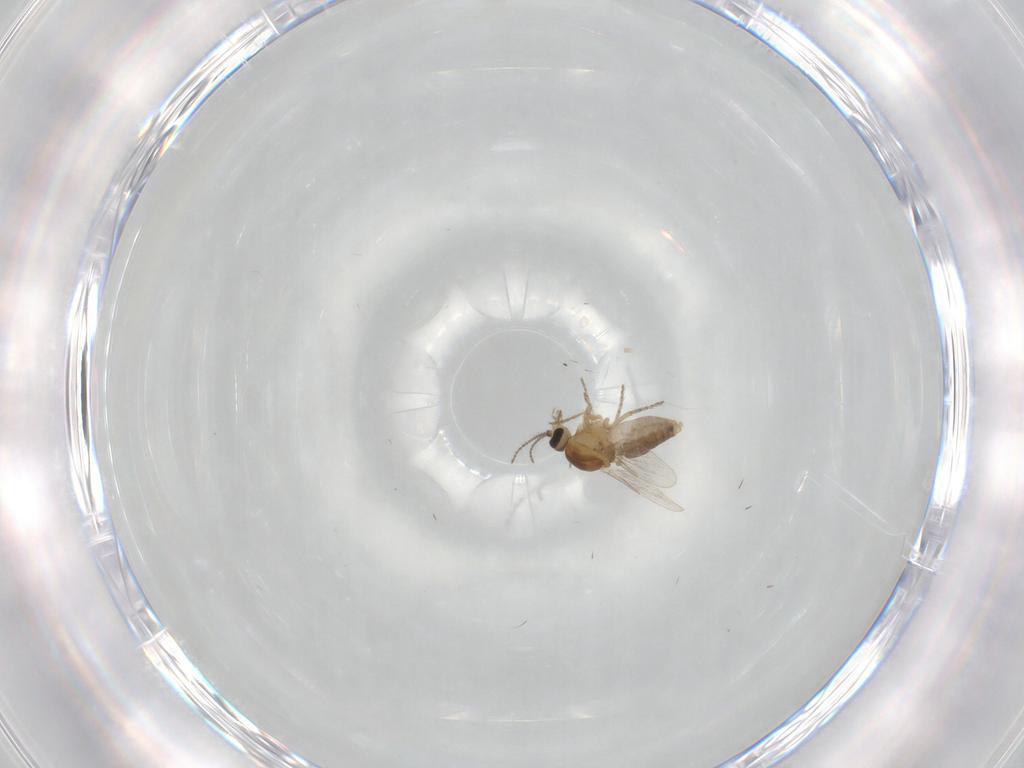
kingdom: Animalia
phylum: Arthropoda
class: Insecta
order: Diptera
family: Ceratopogonidae
